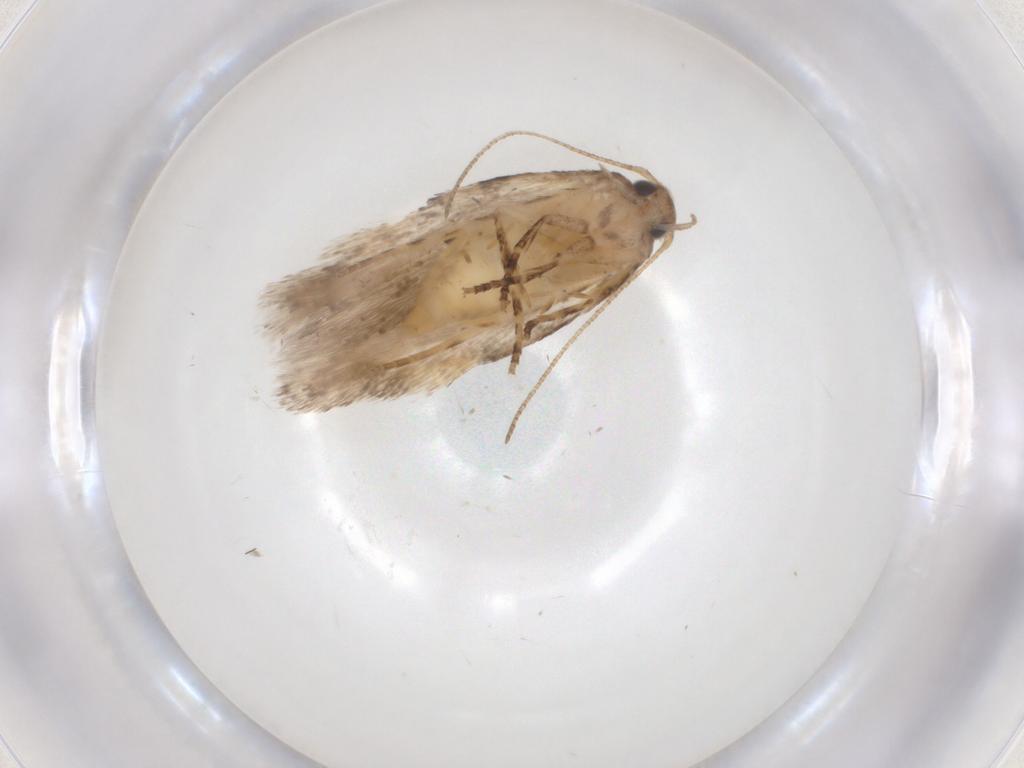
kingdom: Animalia
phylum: Arthropoda
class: Insecta
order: Lepidoptera
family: Gelechiidae
